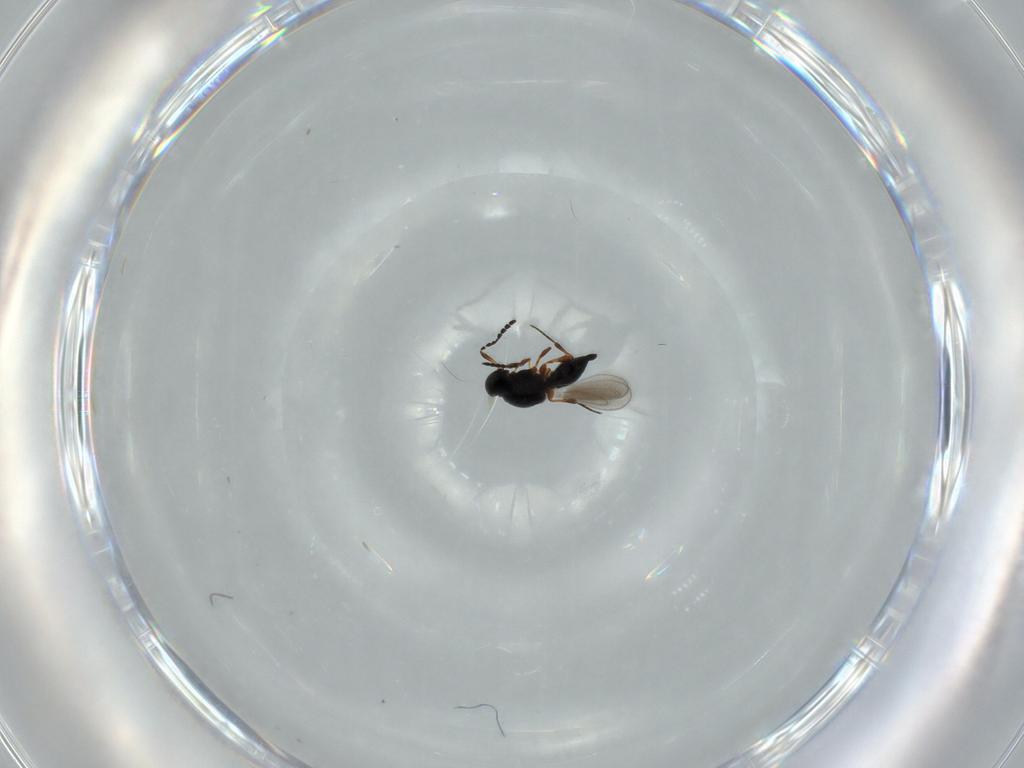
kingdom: Animalia
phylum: Arthropoda
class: Insecta
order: Hymenoptera
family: Platygastridae
